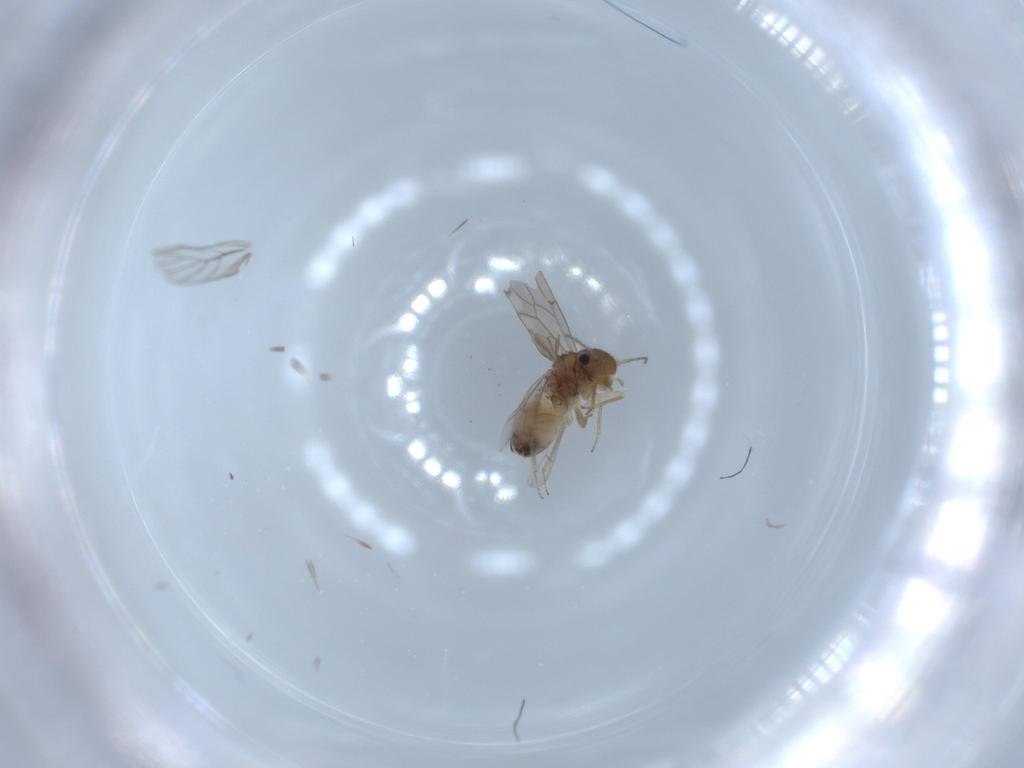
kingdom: Animalia
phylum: Arthropoda
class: Insecta
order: Psocodea
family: Ectopsocidae
